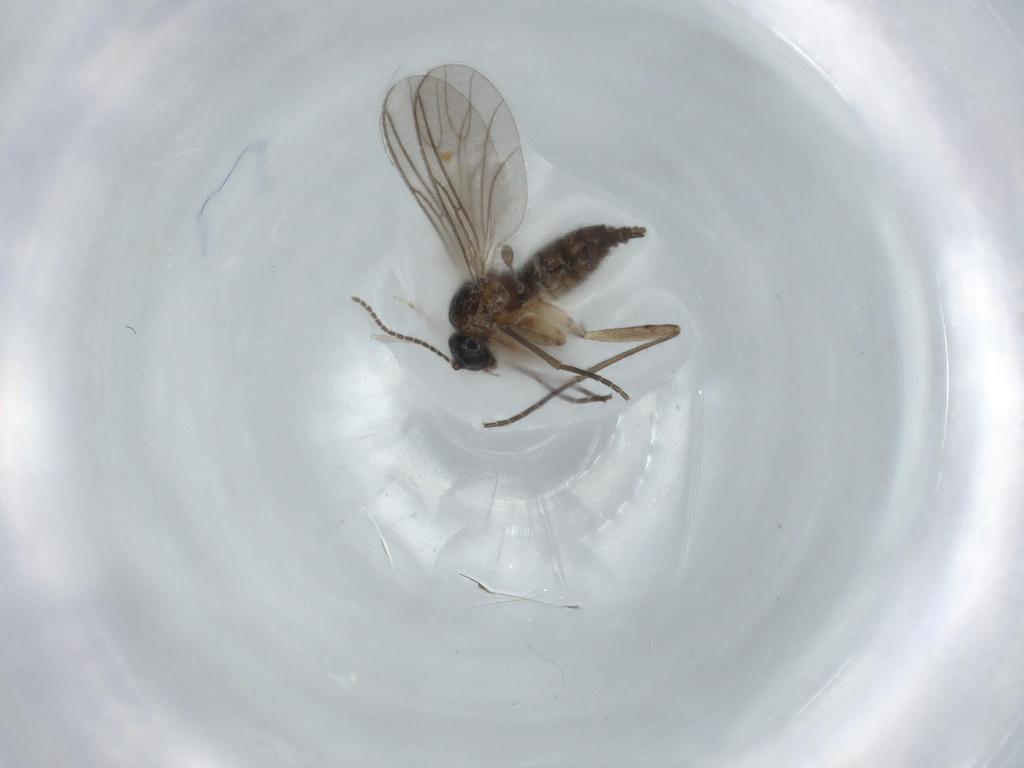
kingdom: Animalia
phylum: Arthropoda
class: Insecta
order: Diptera
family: Sciaridae
